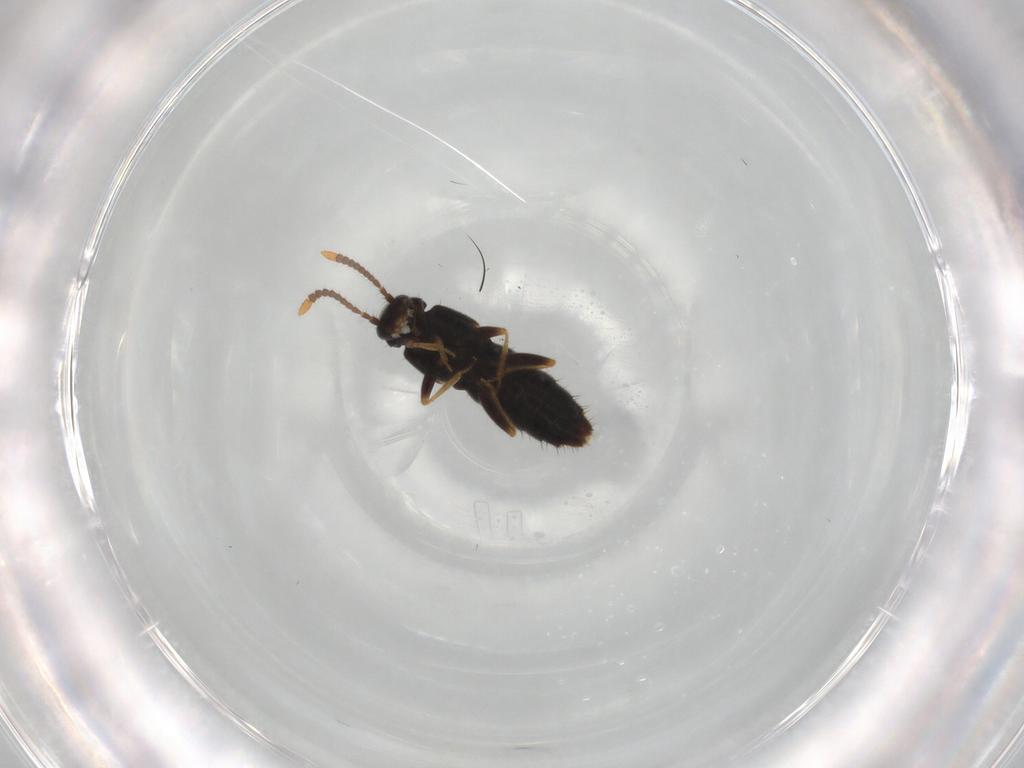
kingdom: Animalia
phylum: Arthropoda
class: Insecta
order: Coleoptera
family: Staphylinidae
